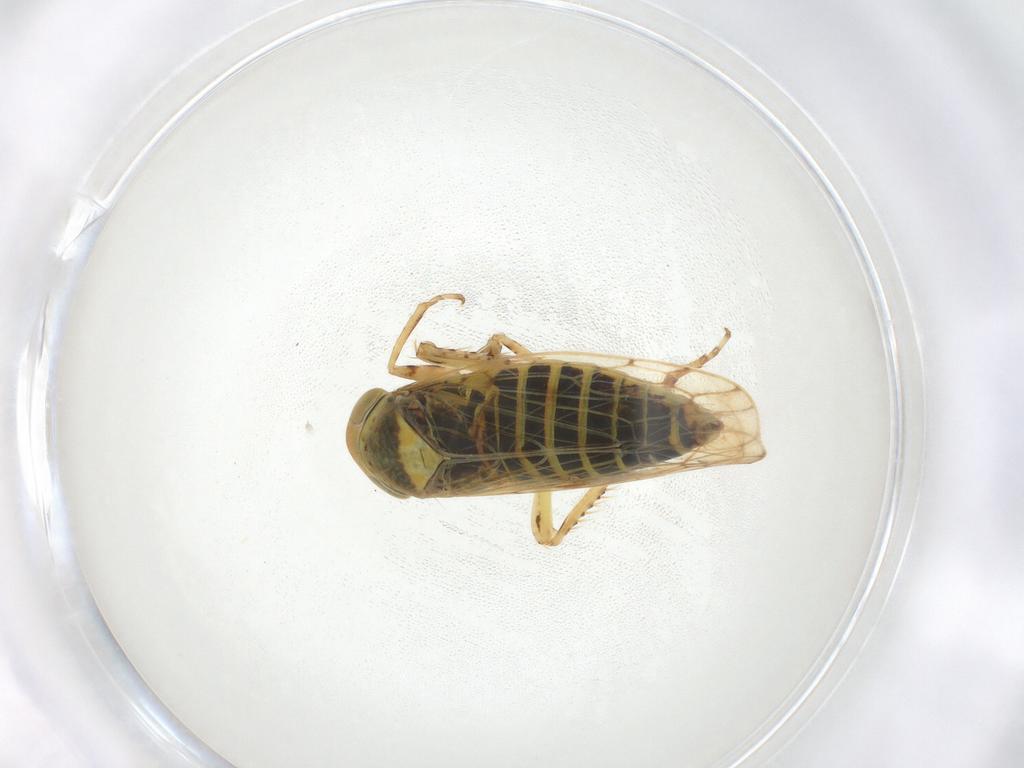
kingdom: Animalia
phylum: Arthropoda
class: Insecta
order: Hemiptera
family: Cicadellidae
